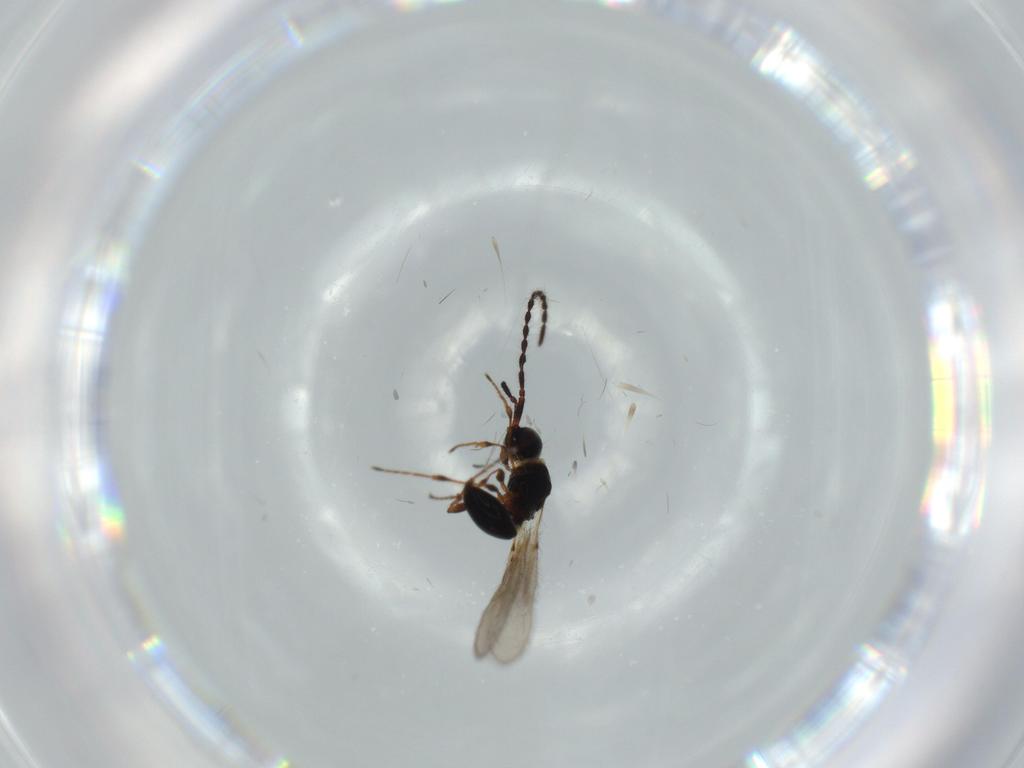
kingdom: Animalia
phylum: Arthropoda
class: Insecta
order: Hymenoptera
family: Diapriidae
